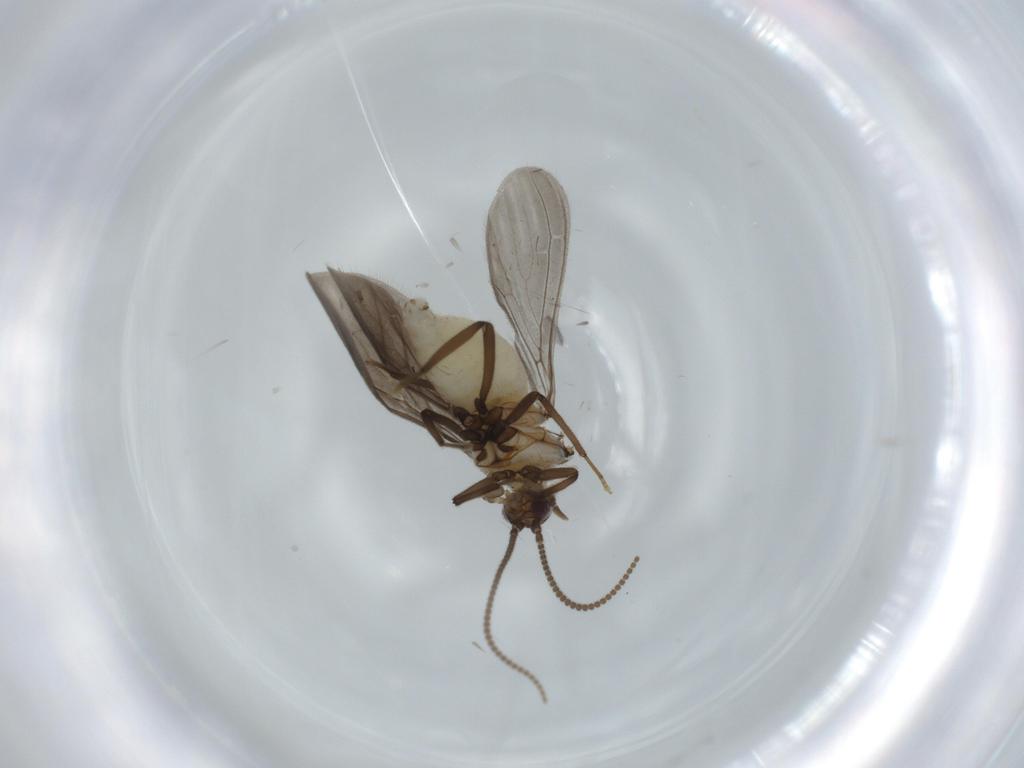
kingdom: Animalia
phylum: Arthropoda
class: Insecta
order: Neuroptera
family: Coniopterygidae
